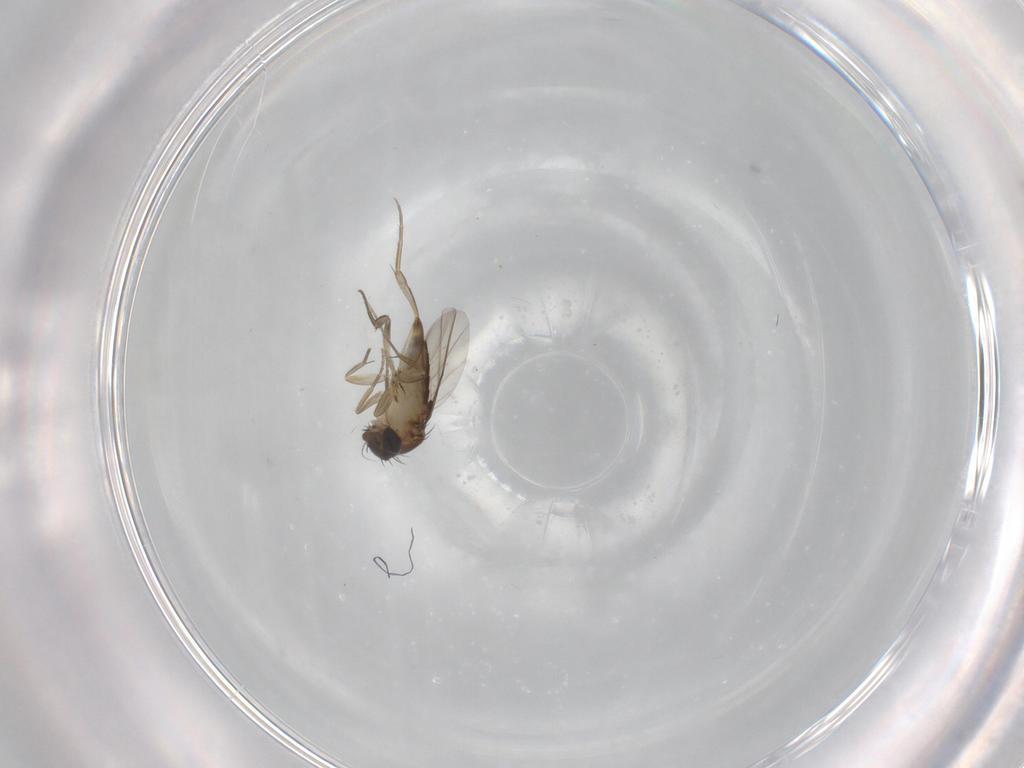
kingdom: Animalia
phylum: Arthropoda
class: Insecta
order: Diptera
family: Phoridae
